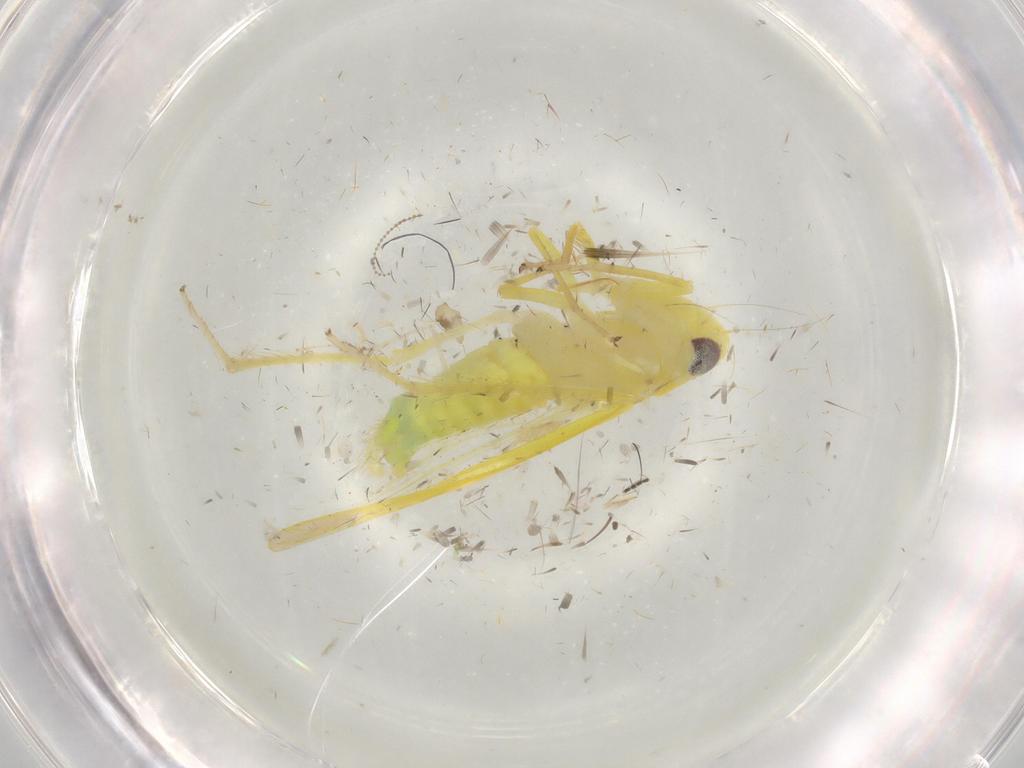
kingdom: Animalia
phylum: Arthropoda
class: Insecta
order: Hemiptera
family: Cicadellidae
